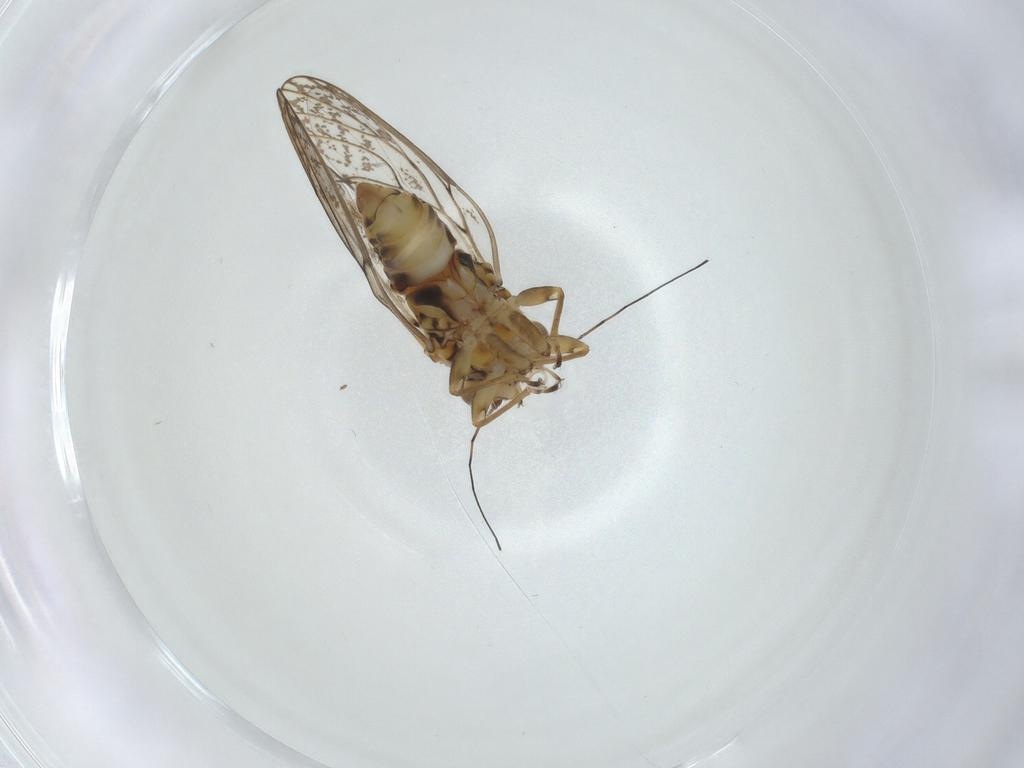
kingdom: Animalia
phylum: Arthropoda
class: Insecta
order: Hemiptera
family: Psyllidae
